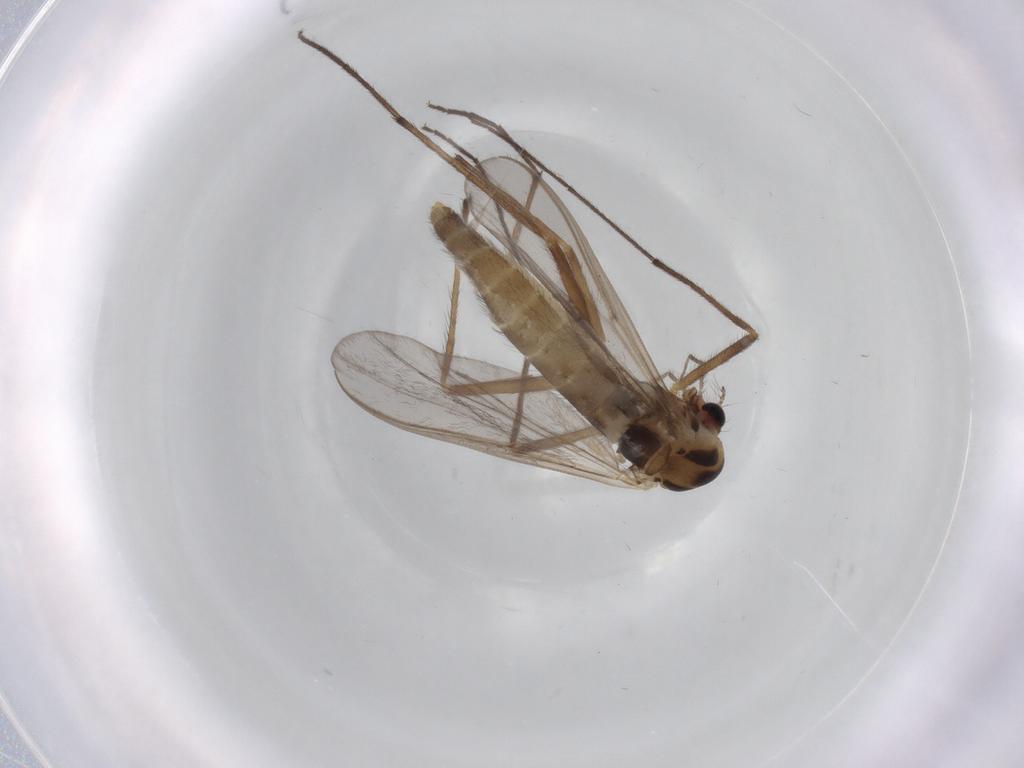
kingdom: Animalia
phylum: Arthropoda
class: Insecta
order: Diptera
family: Chironomidae
